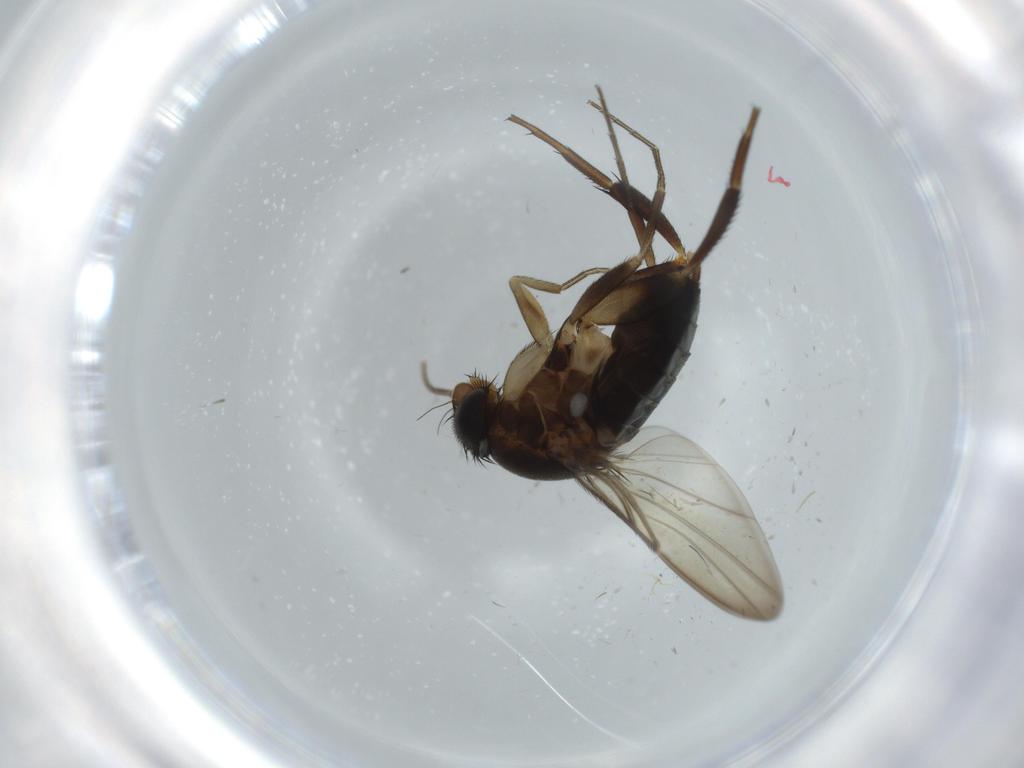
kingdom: Animalia
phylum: Arthropoda
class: Insecta
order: Diptera
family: Phoridae
